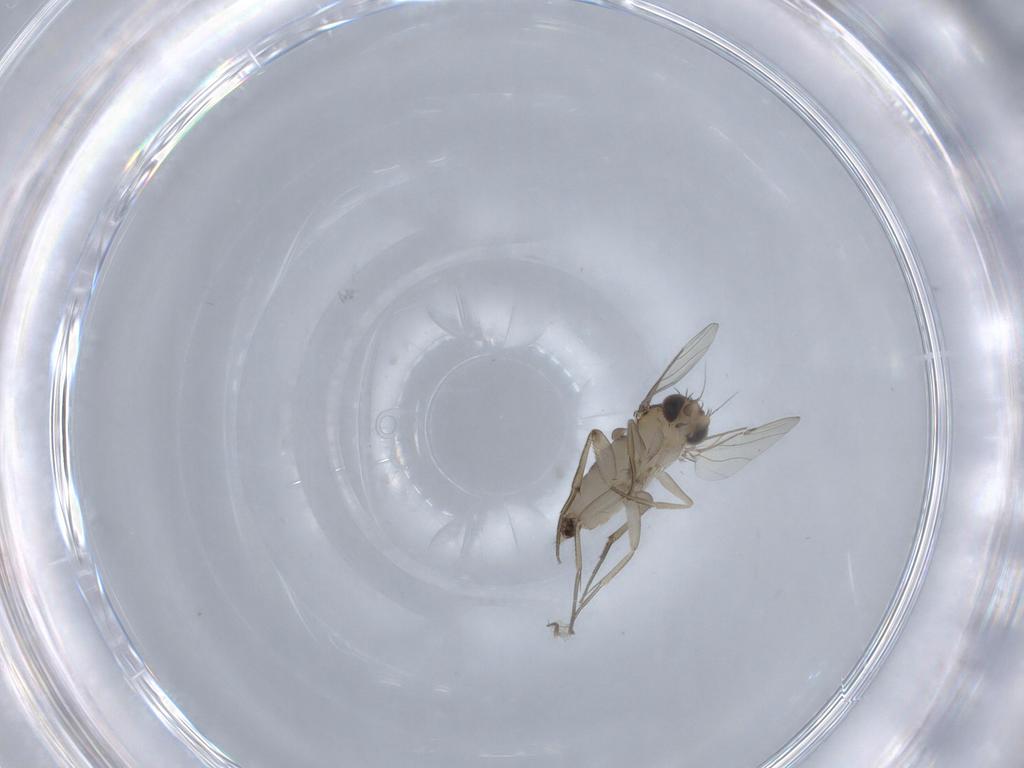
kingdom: Animalia
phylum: Arthropoda
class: Insecta
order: Diptera
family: Phoridae
